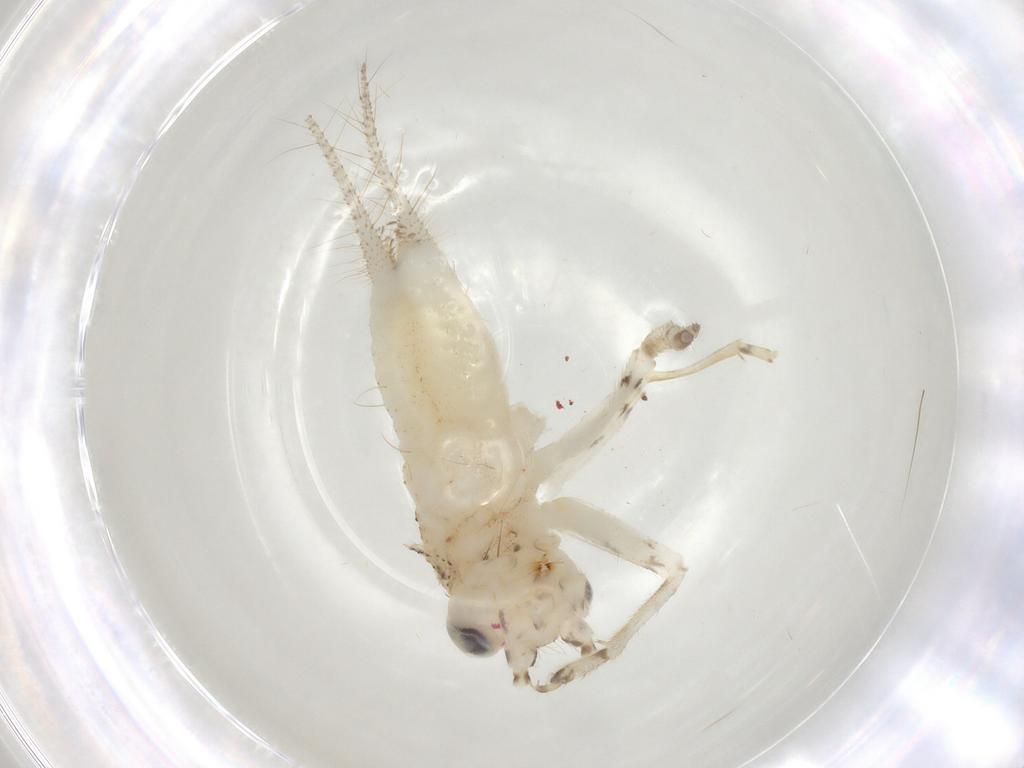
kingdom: Animalia
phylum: Arthropoda
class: Insecta
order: Orthoptera
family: Trigonidiidae
